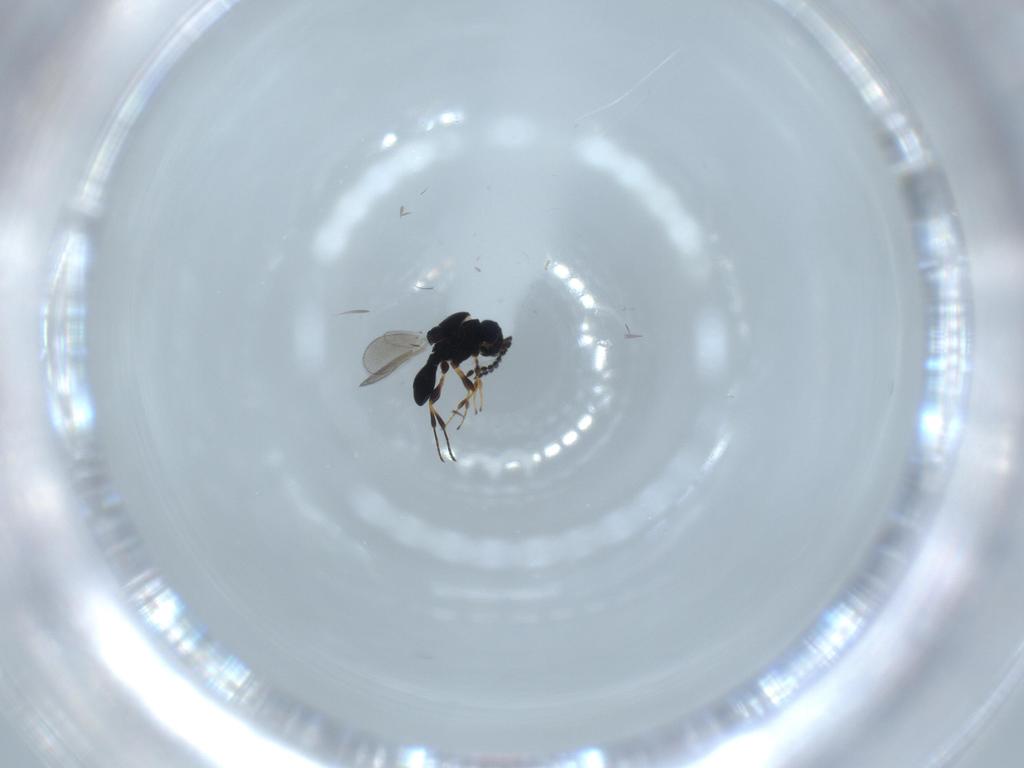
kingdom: Animalia
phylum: Arthropoda
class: Insecta
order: Hymenoptera
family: Platygastridae
